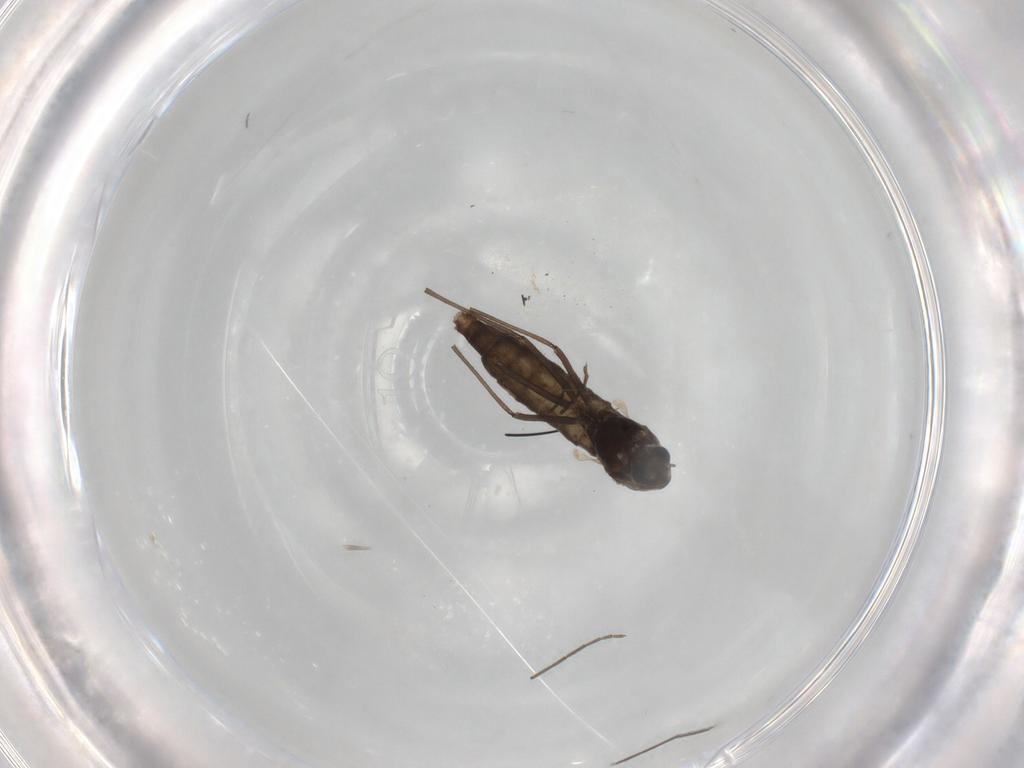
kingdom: Animalia
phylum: Arthropoda
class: Insecta
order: Diptera
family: Chironomidae
